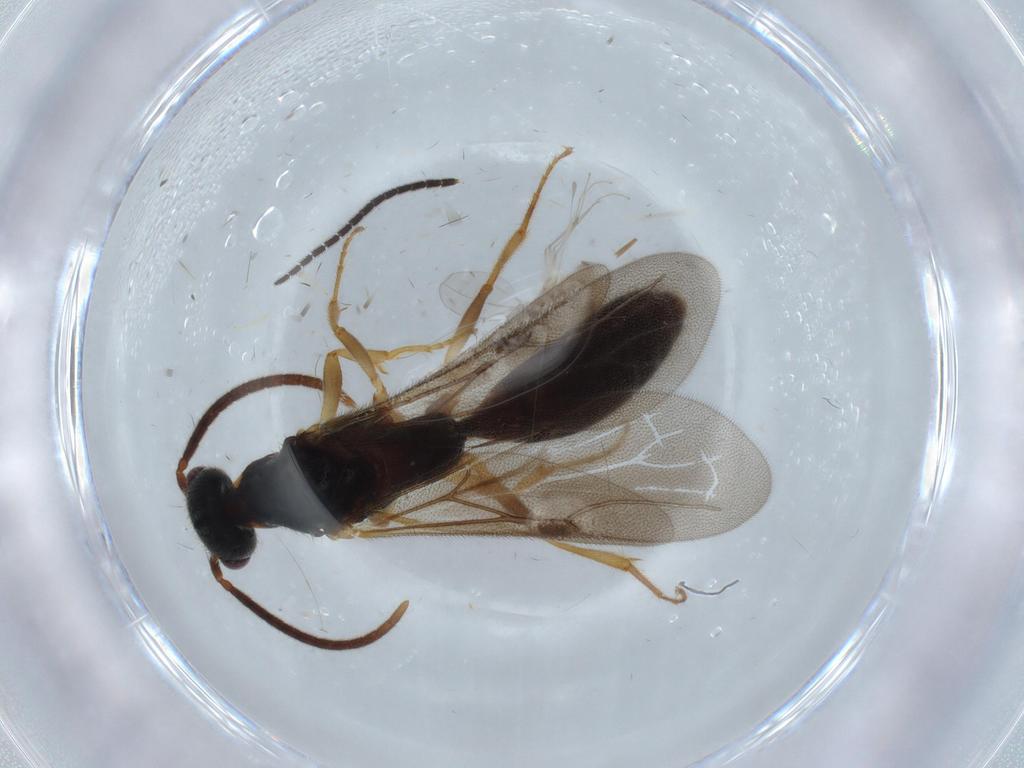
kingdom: Animalia
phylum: Arthropoda
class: Insecta
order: Hymenoptera
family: Bethylidae
